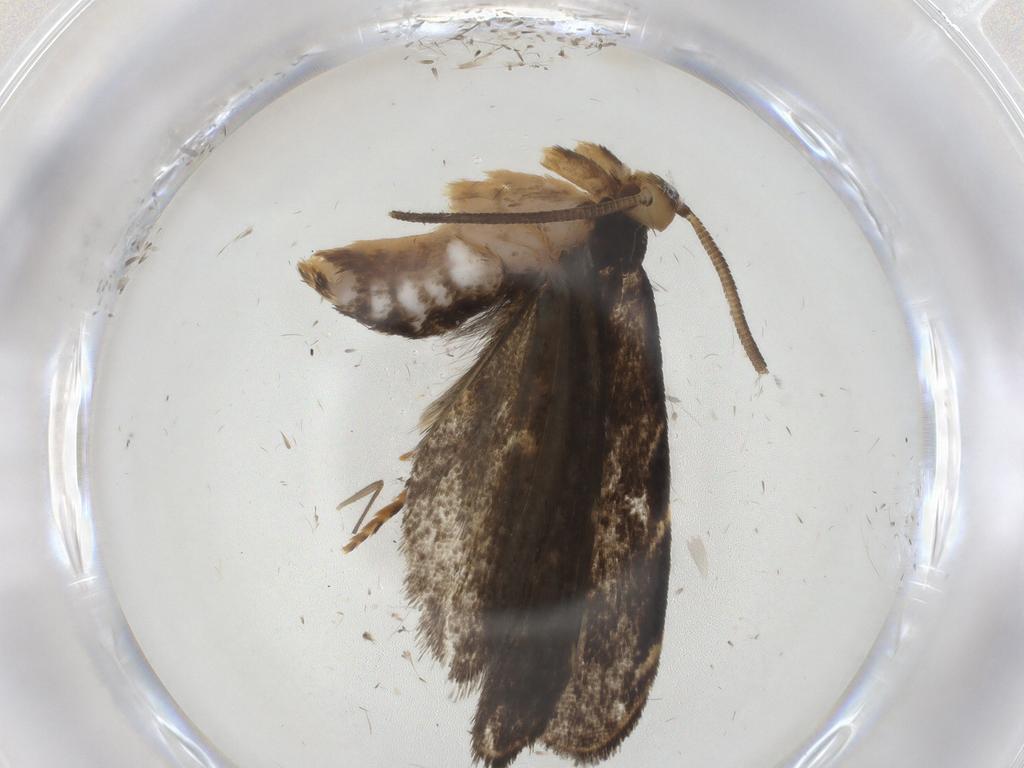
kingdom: Animalia
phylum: Arthropoda
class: Insecta
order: Lepidoptera
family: Dryadaulidae
